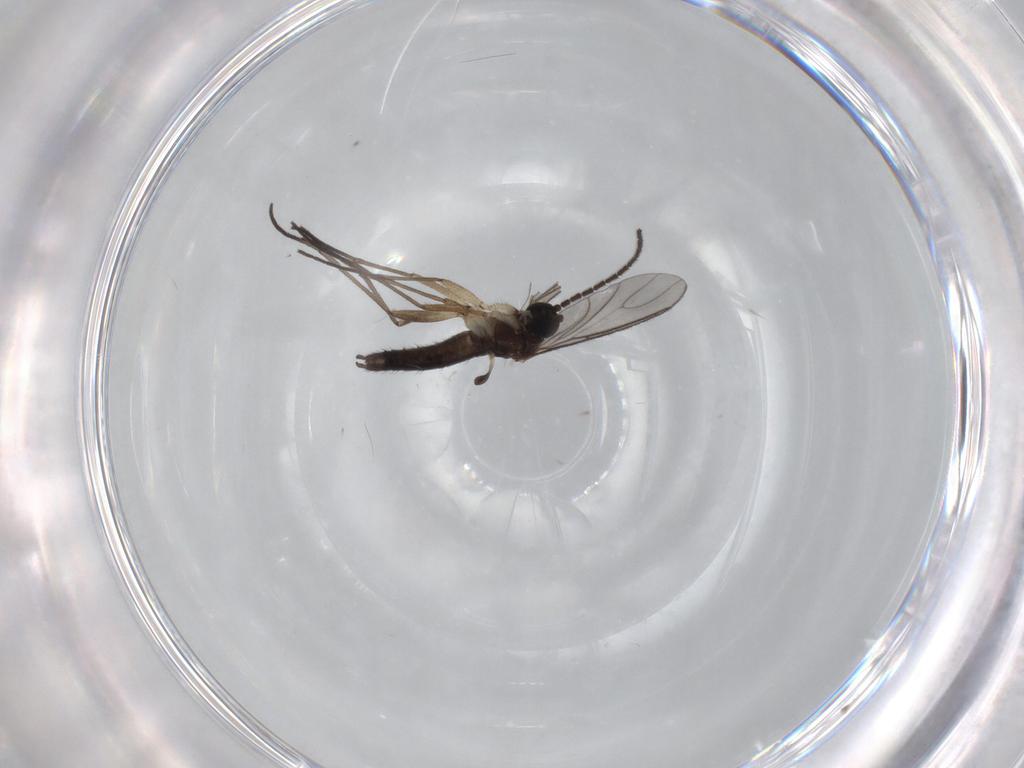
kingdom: Animalia
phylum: Arthropoda
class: Insecta
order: Diptera
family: Sciaridae
